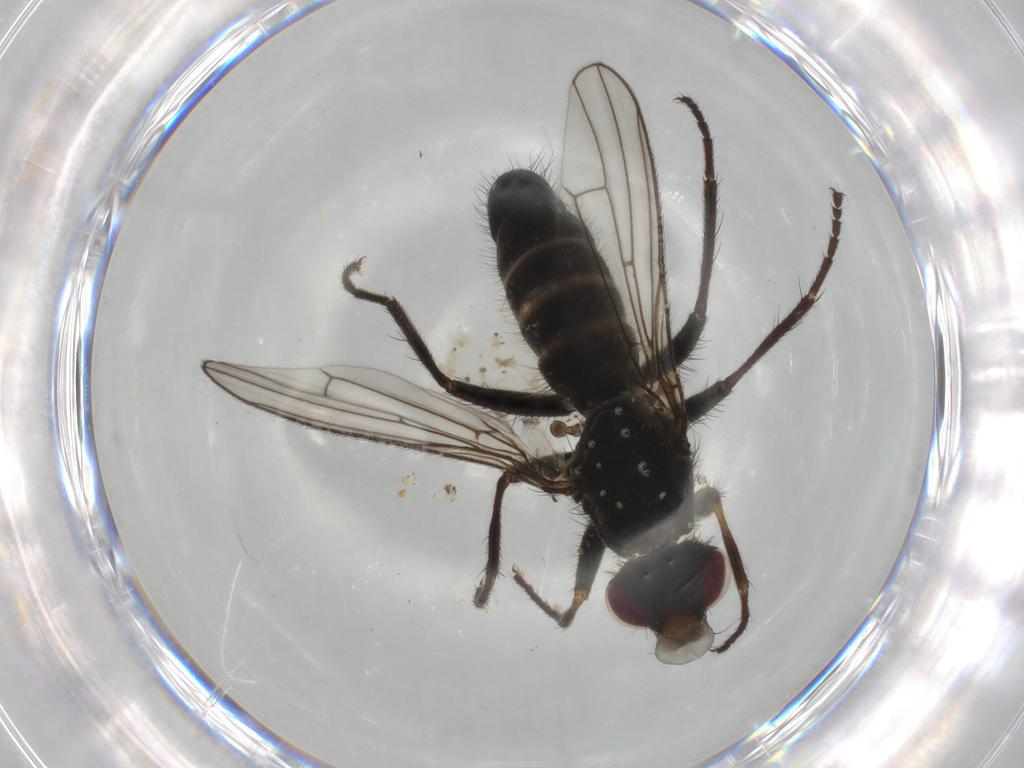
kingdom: Animalia
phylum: Arthropoda
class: Insecta
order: Diptera
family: Scathophagidae
